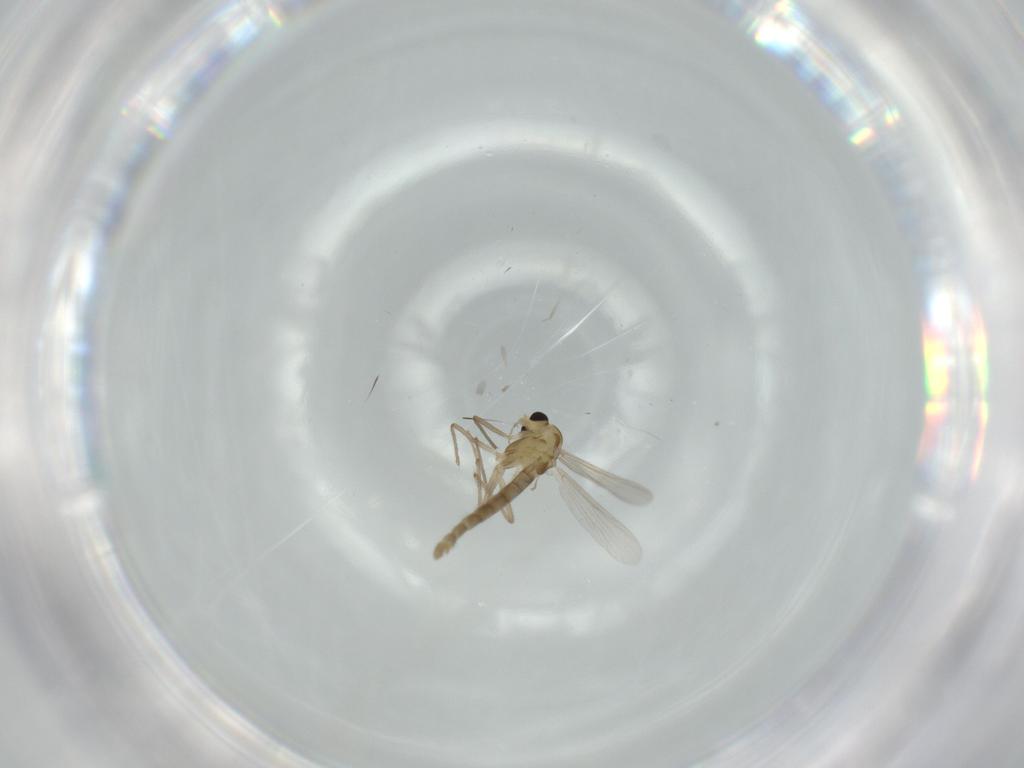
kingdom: Animalia
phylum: Arthropoda
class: Insecta
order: Diptera
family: Chironomidae
